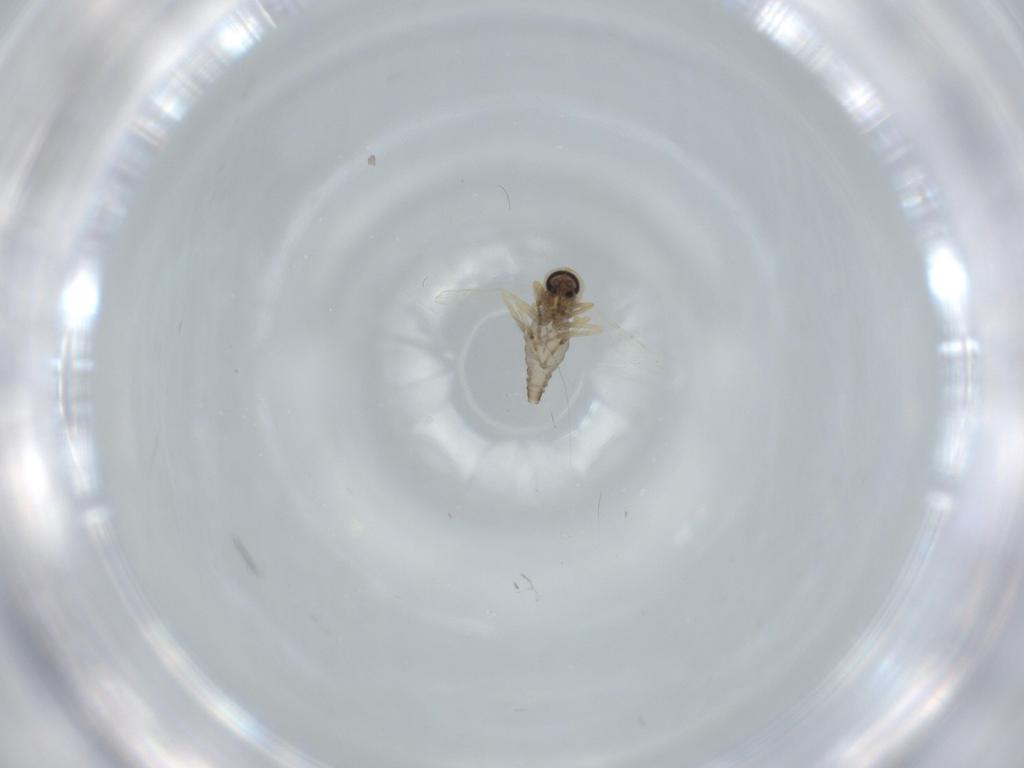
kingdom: Animalia
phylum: Arthropoda
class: Insecta
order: Diptera
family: Ceratopogonidae
